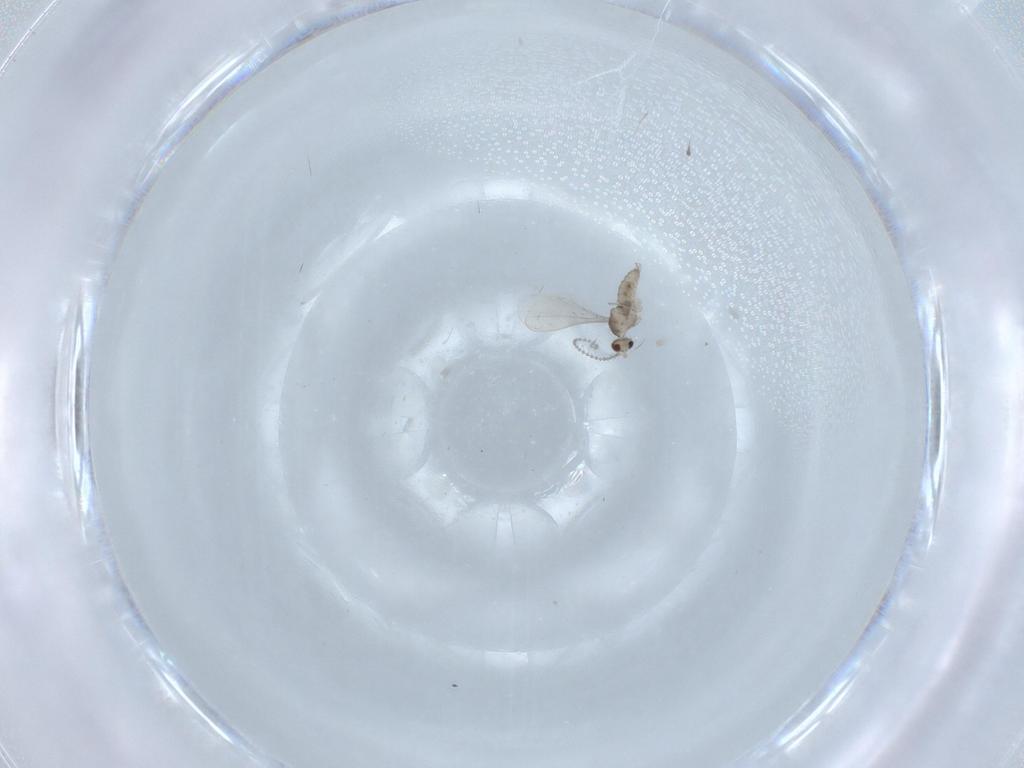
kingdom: Animalia
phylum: Arthropoda
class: Insecta
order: Diptera
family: Cecidomyiidae
